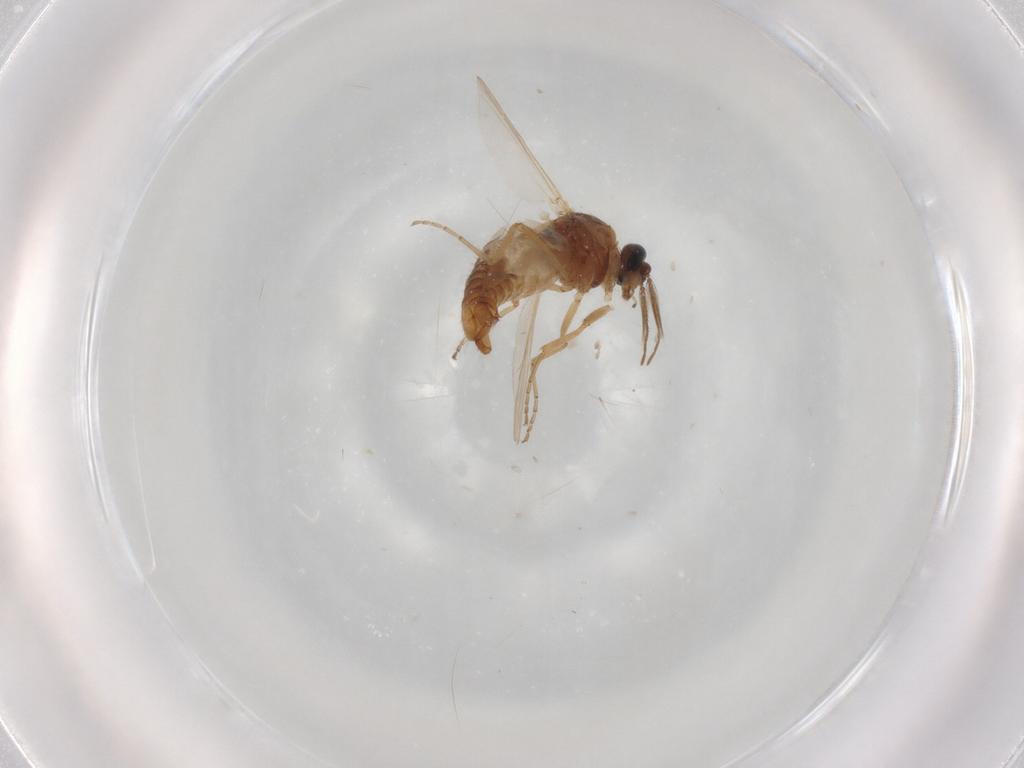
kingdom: Animalia
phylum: Arthropoda
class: Insecta
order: Diptera
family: Ceratopogonidae
